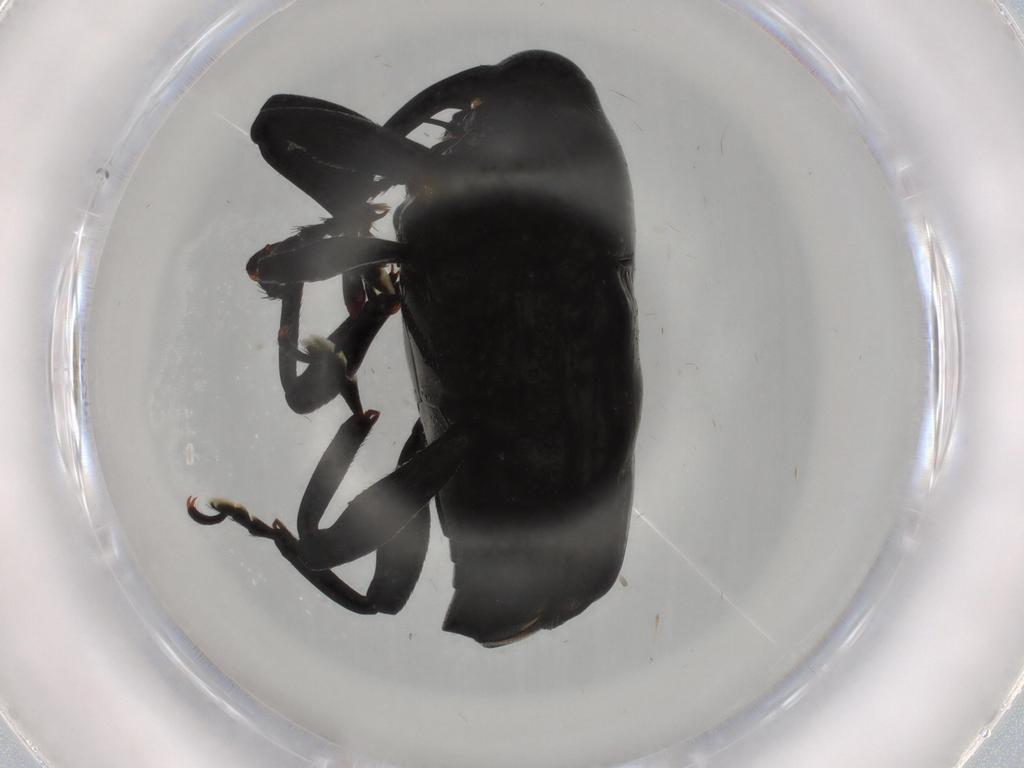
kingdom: Animalia
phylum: Arthropoda
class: Insecta
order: Coleoptera
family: Curculionidae
